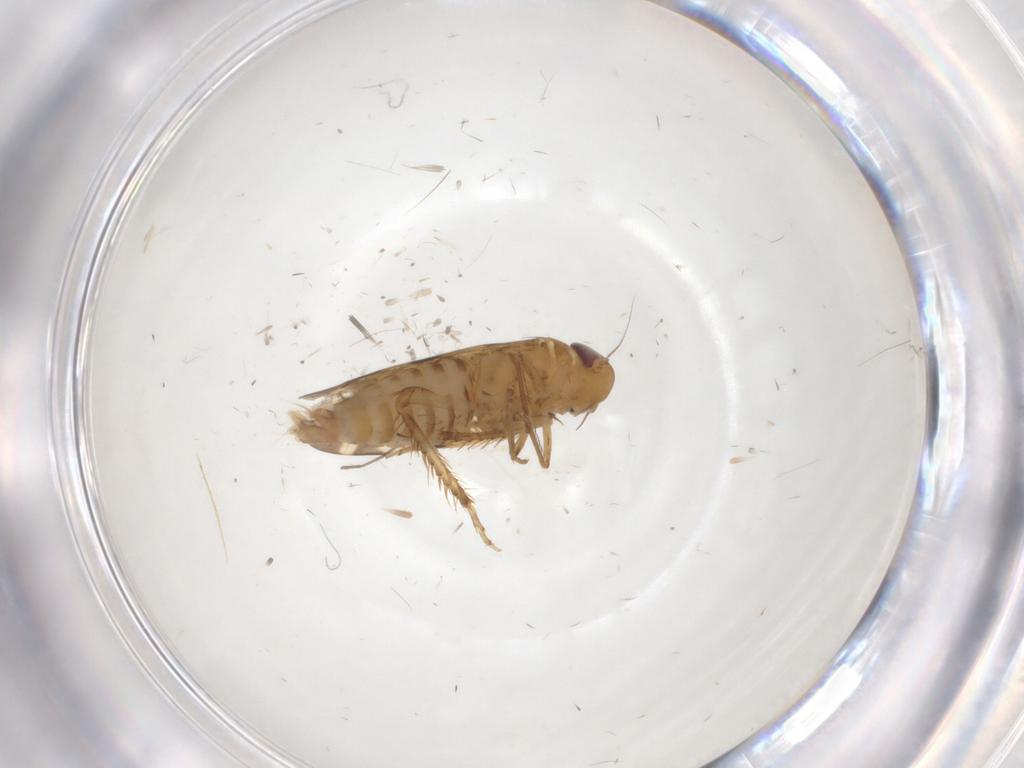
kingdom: Animalia
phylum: Arthropoda
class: Insecta
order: Hemiptera
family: Cicadellidae
